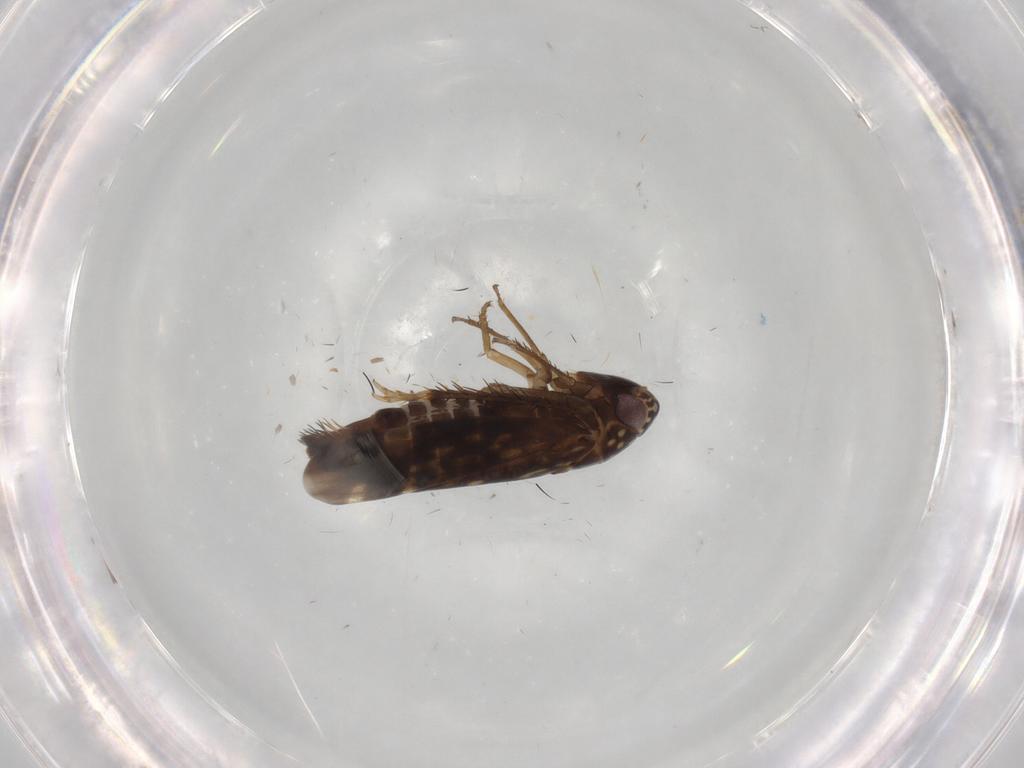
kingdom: Animalia
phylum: Arthropoda
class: Insecta
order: Hemiptera
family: Cicadellidae
